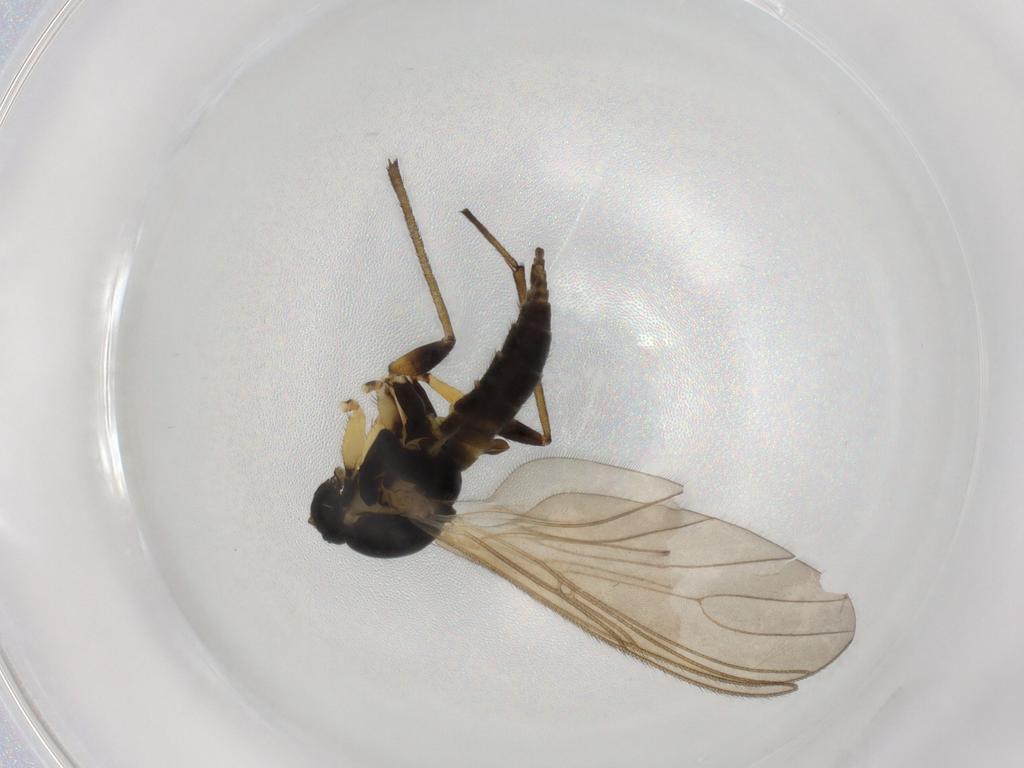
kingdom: Animalia
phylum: Arthropoda
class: Insecta
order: Diptera
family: Sciaridae
